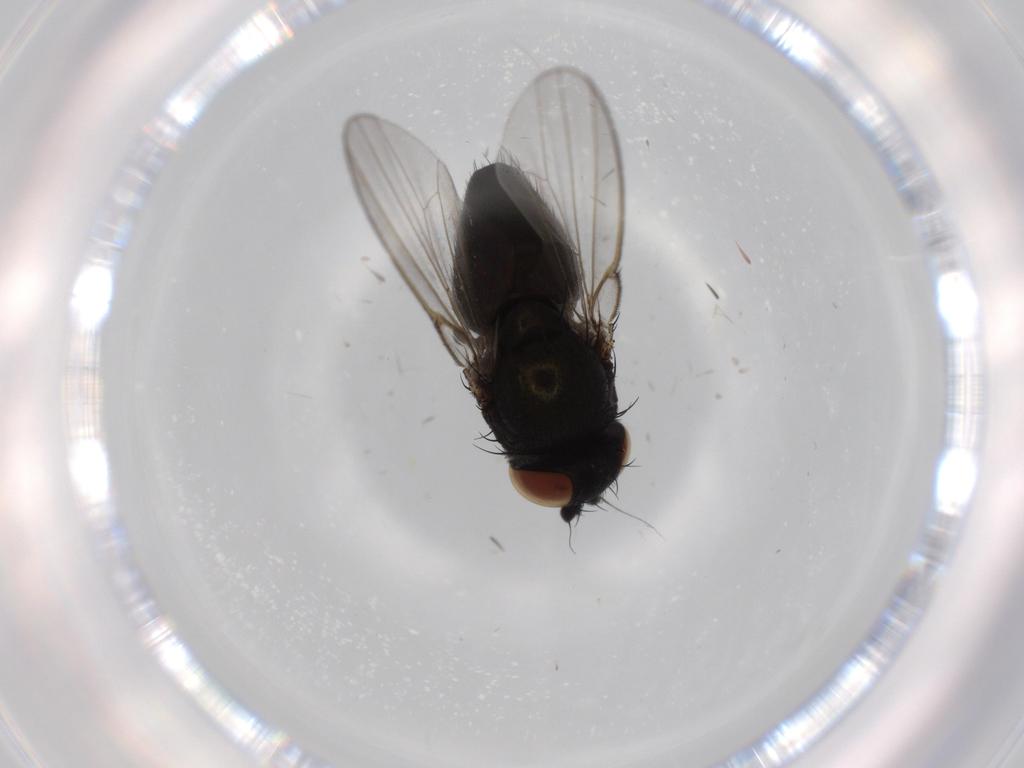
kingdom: Animalia
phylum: Arthropoda
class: Insecta
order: Diptera
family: Milichiidae
